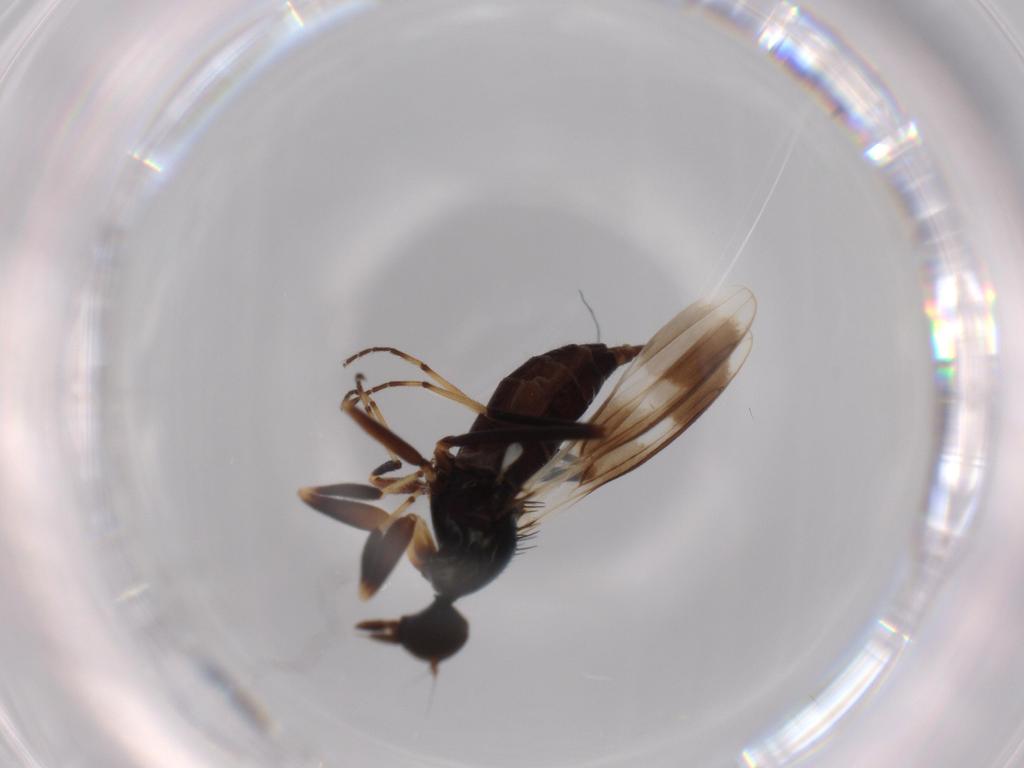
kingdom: Animalia
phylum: Arthropoda
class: Insecta
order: Diptera
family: Hybotidae
